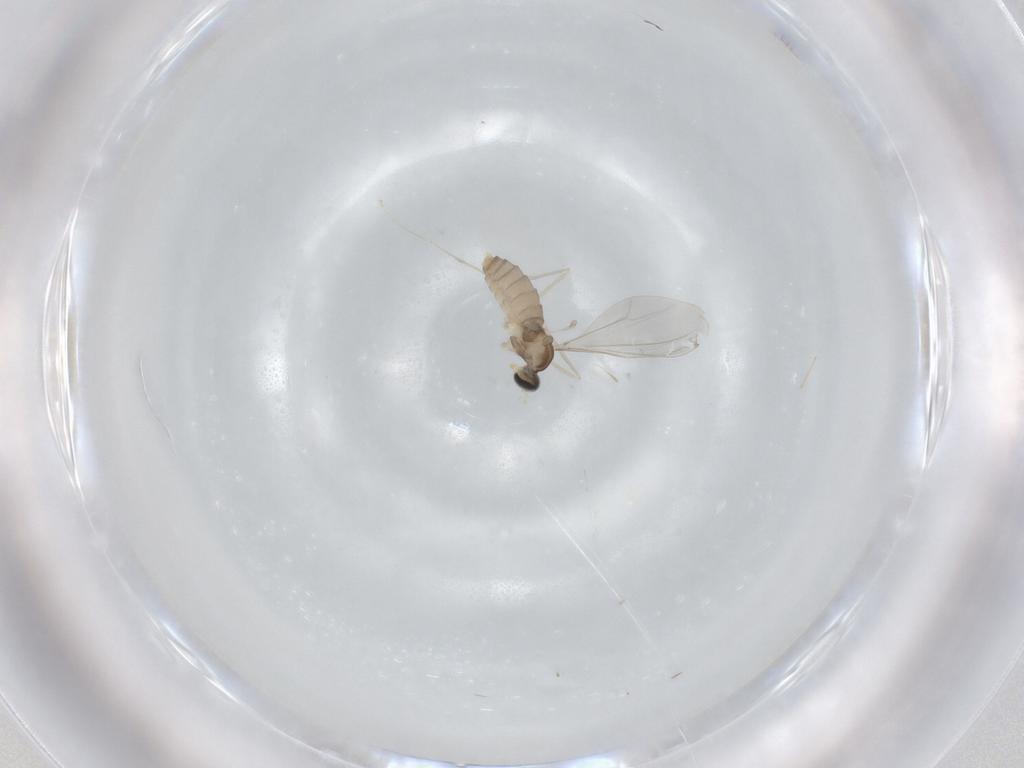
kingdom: Animalia
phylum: Arthropoda
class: Insecta
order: Diptera
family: Cecidomyiidae
